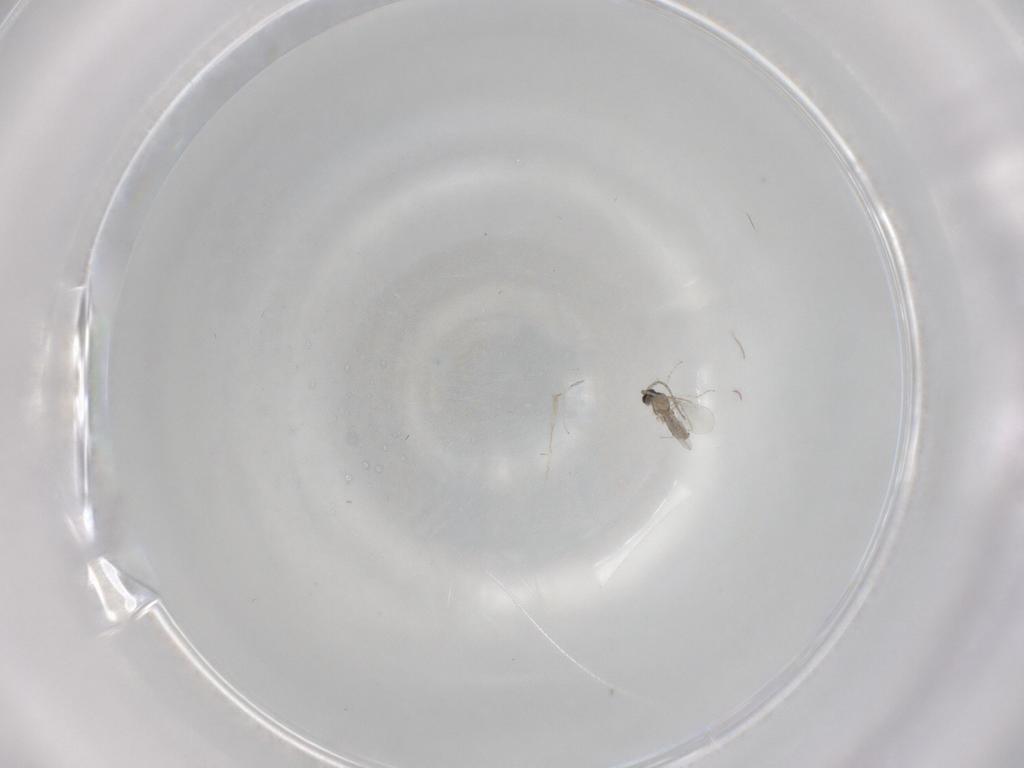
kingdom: Animalia
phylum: Arthropoda
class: Insecta
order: Diptera
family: Cecidomyiidae
